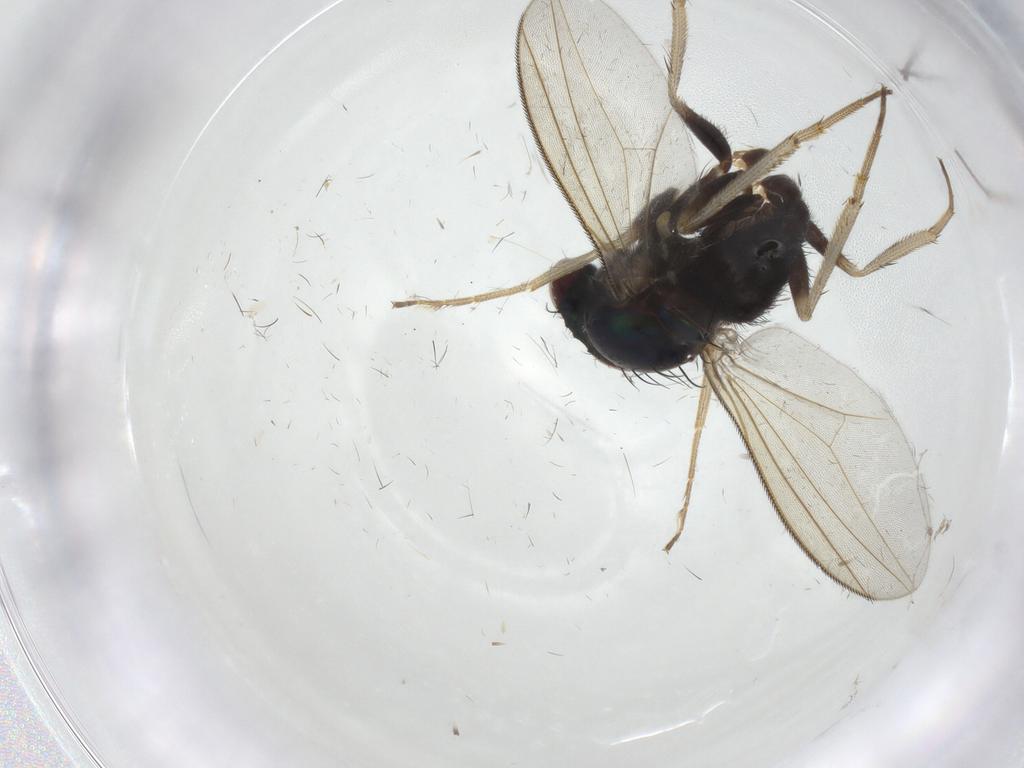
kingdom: Animalia
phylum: Arthropoda
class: Insecta
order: Diptera
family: Dolichopodidae
